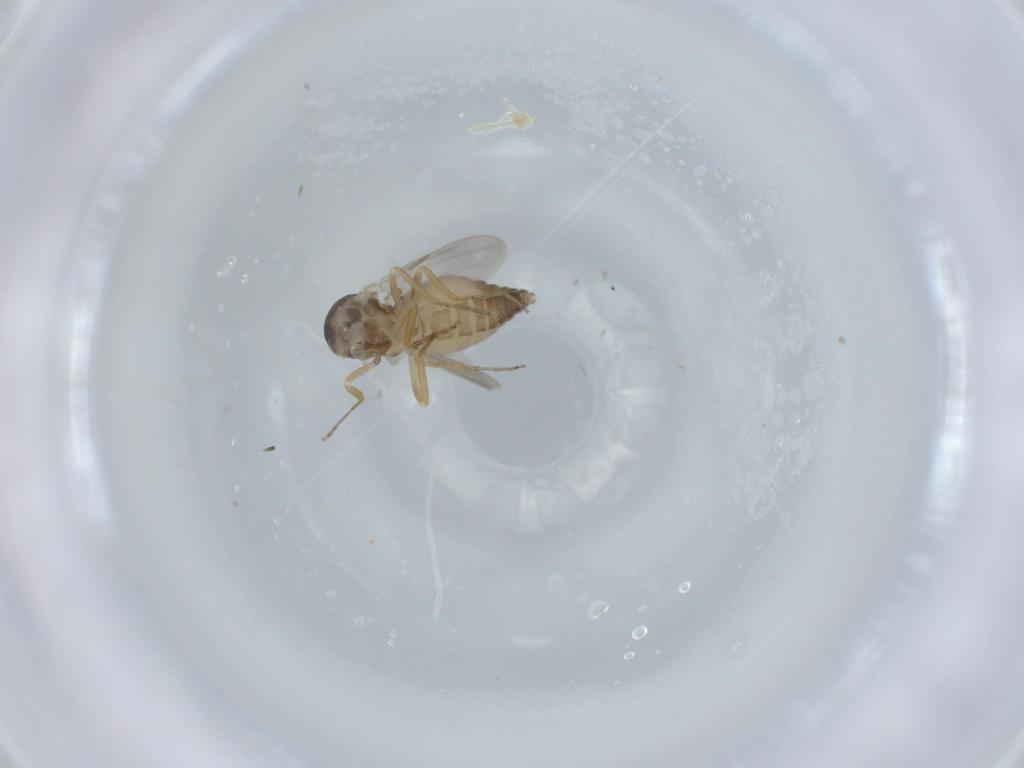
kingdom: Animalia
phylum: Arthropoda
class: Insecta
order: Diptera
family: Ceratopogonidae
